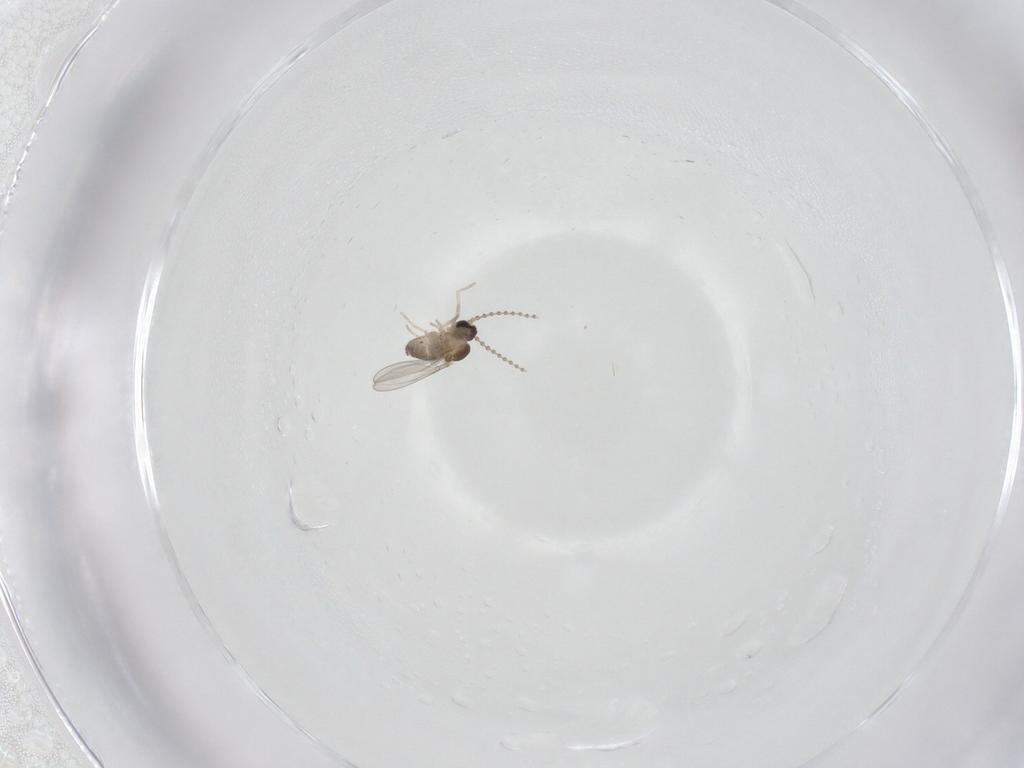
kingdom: Animalia
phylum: Arthropoda
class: Insecta
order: Diptera
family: Cecidomyiidae
